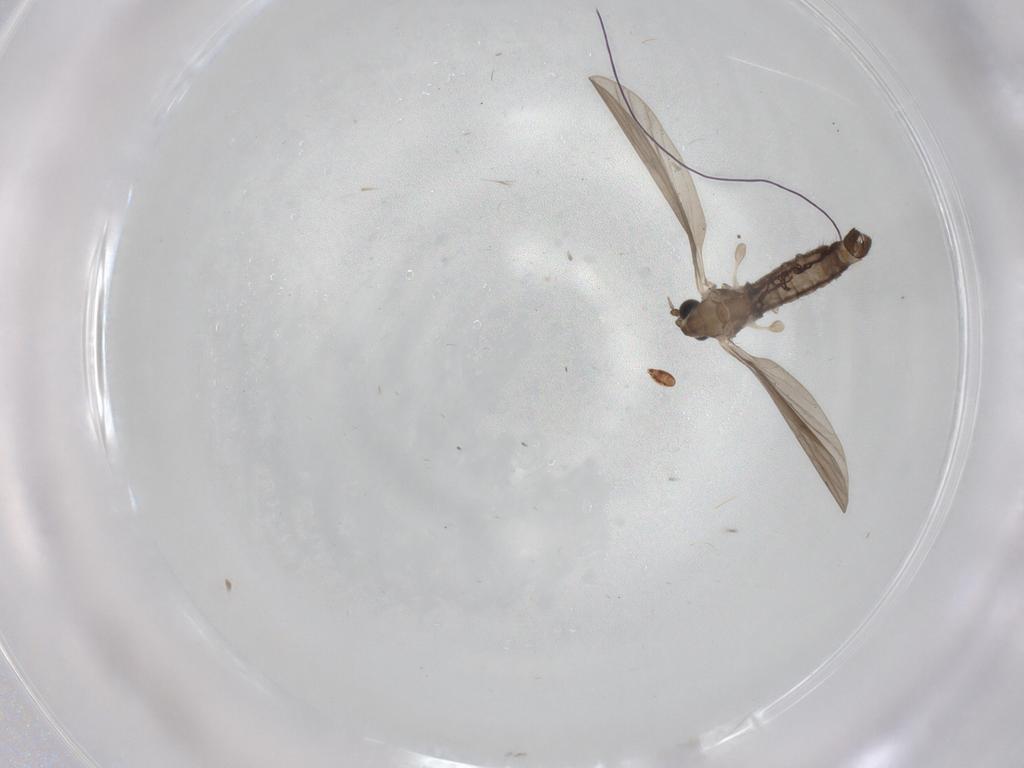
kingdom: Animalia
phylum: Arthropoda
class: Insecta
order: Diptera
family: Limoniidae
